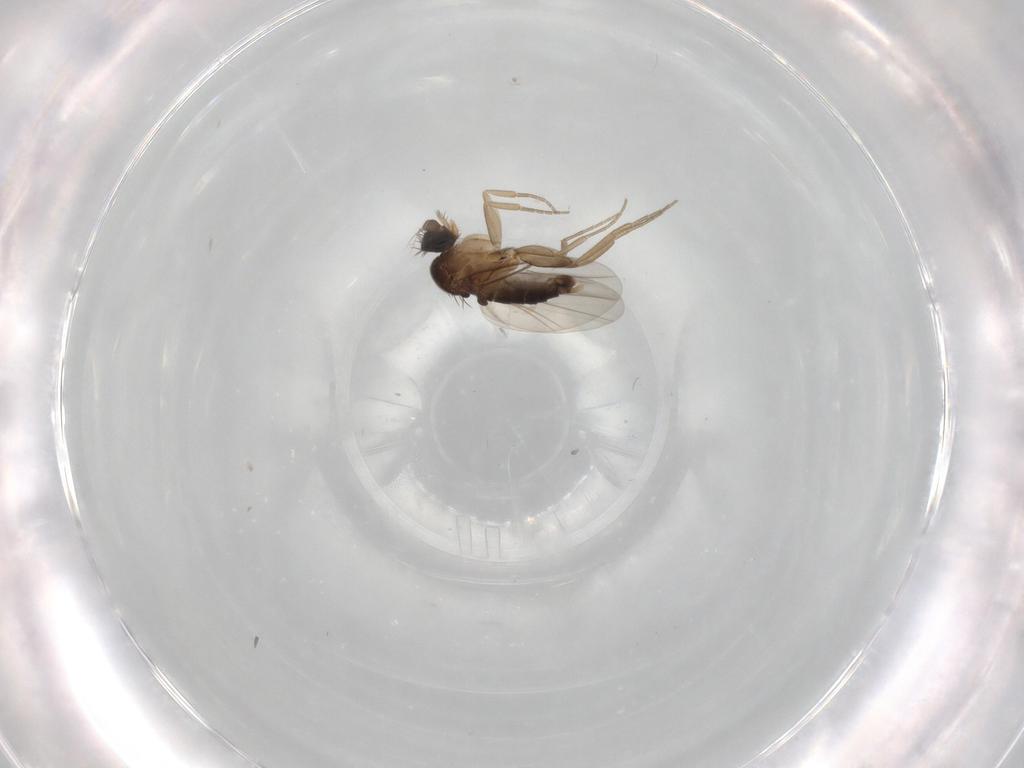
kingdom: Animalia
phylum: Arthropoda
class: Insecta
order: Diptera
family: Phoridae
